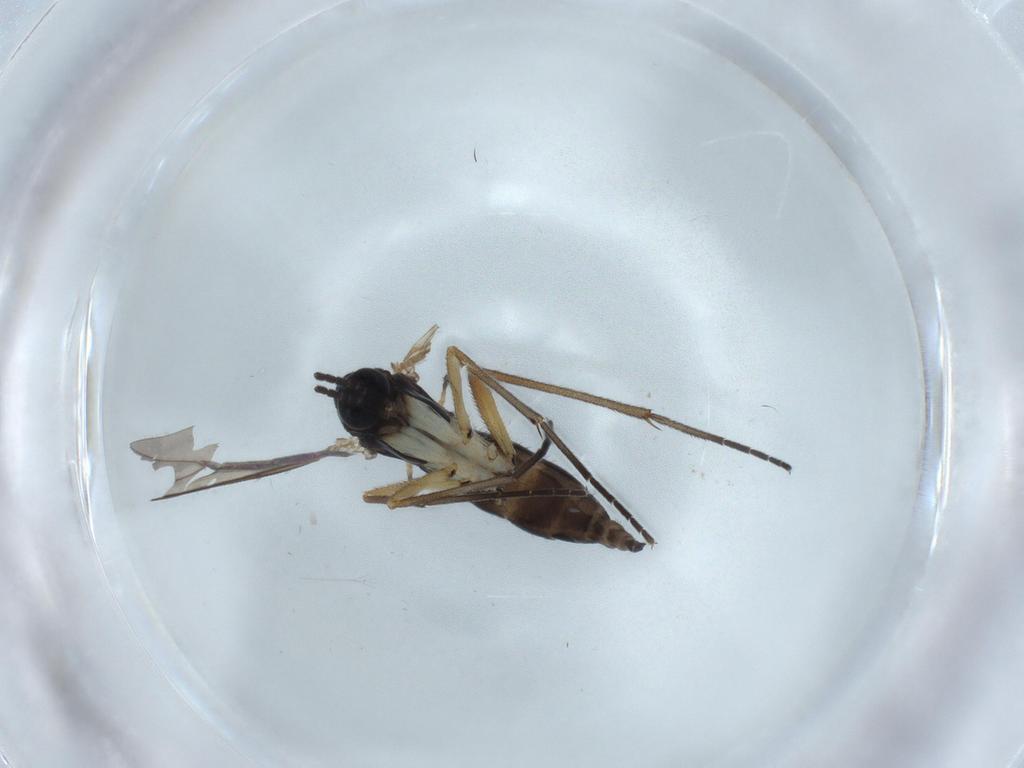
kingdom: Animalia
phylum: Arthropoda
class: Insecta
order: Diptera
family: Sciaridae
